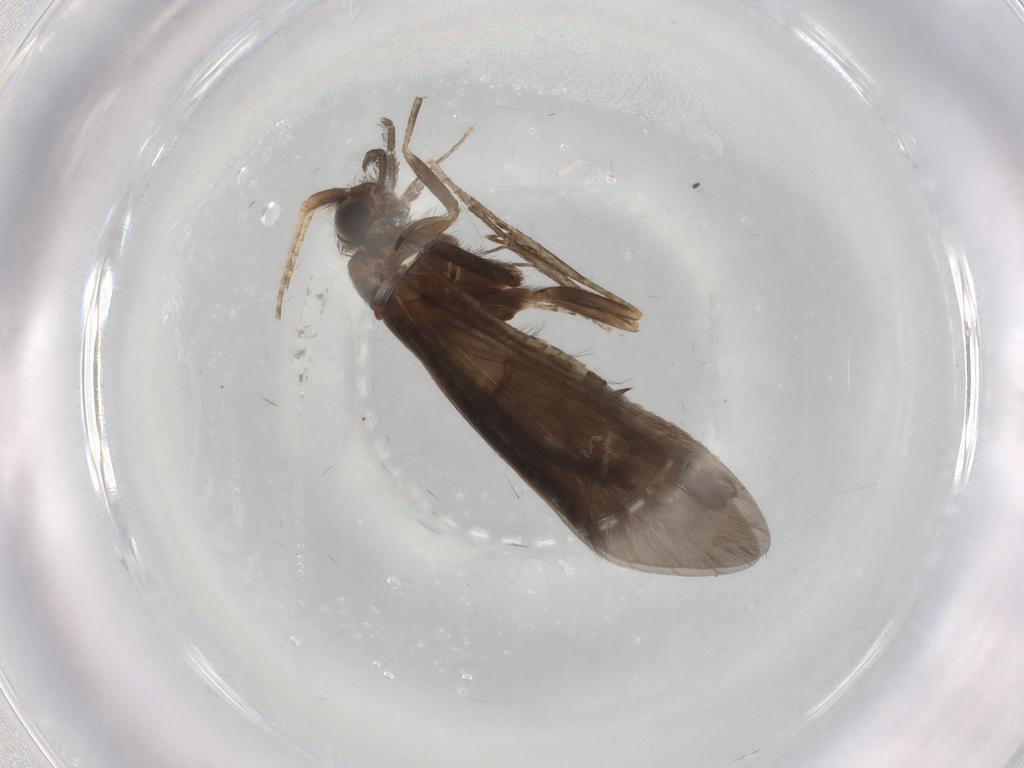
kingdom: Animalia
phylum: Arthropoda
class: Insecta
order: Trichoptera
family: Helicopsychidae
